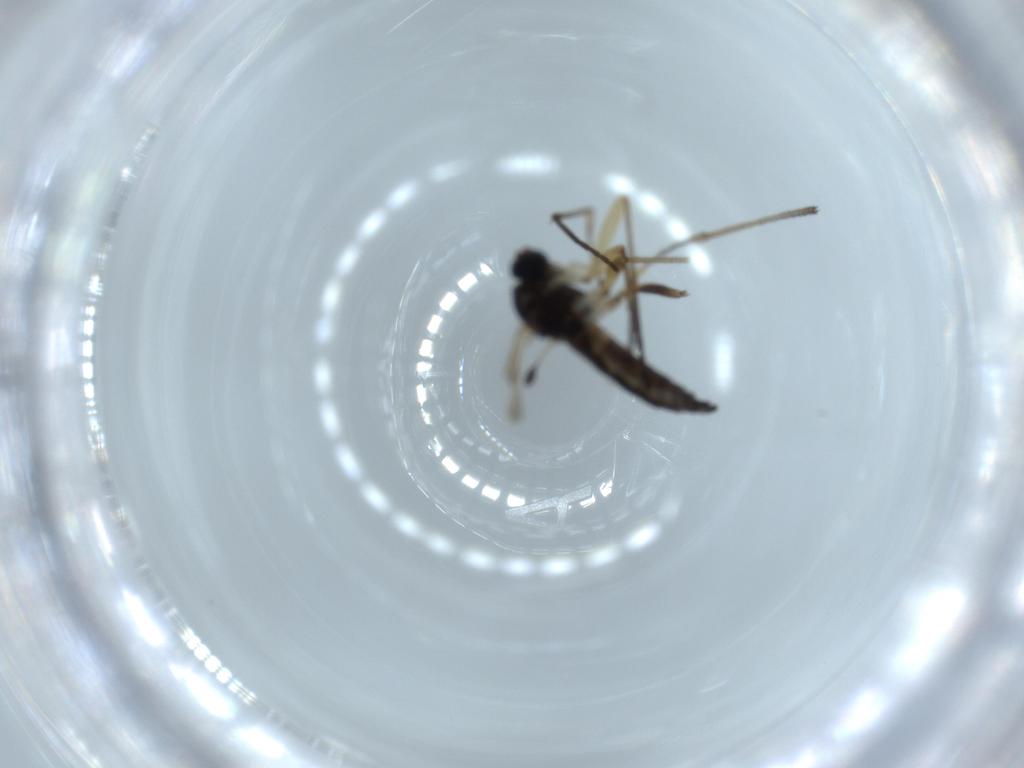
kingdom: Animalia
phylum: Arthropoda
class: Insecta
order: Diptera
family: Sciaridae
